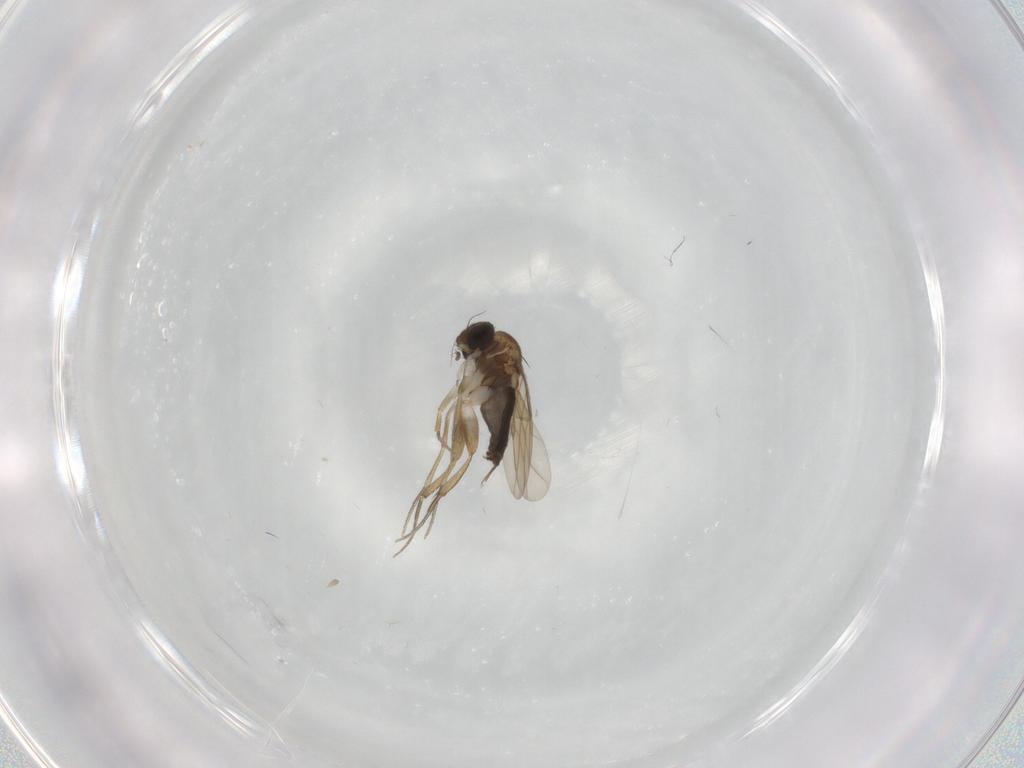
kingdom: Animalia
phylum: Arthropoda
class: Insecta
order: Diptera
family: Phoridae
